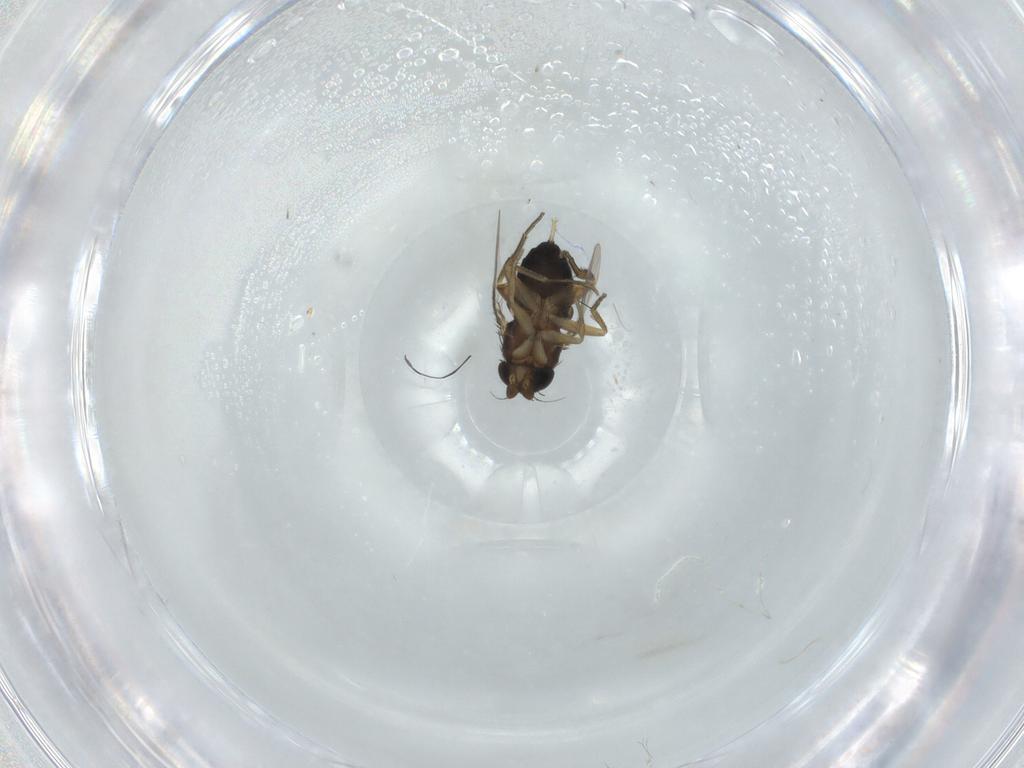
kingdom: Animalia
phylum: Arthropoda
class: Insecta
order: Diptera
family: Phoridae
